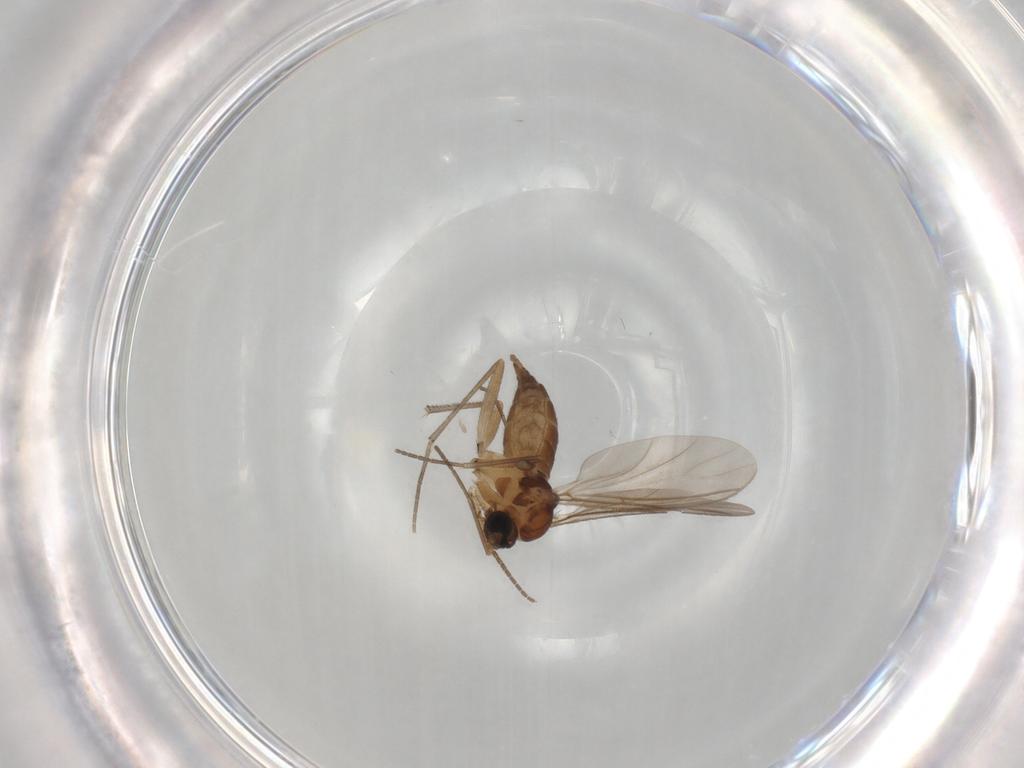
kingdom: Animalia
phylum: Arthropoda
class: Insecta
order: Diptera
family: Sciaridae
